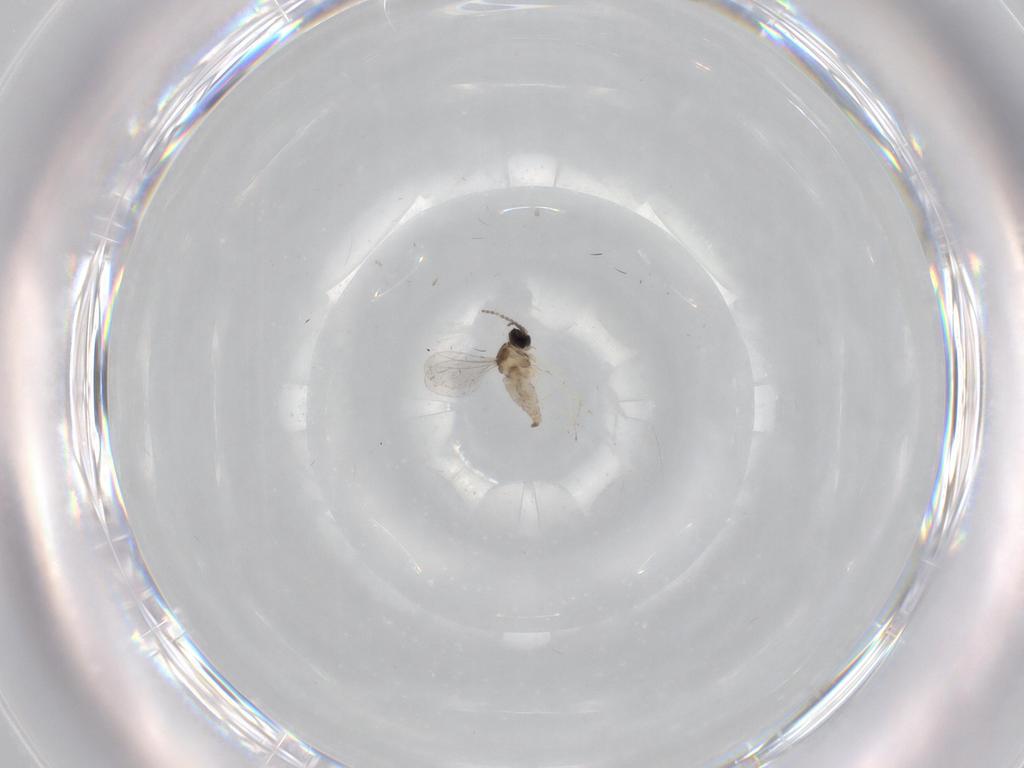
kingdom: Animalia
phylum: Arthropoda
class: Insecta
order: Diptera
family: Cecidomyiidae
